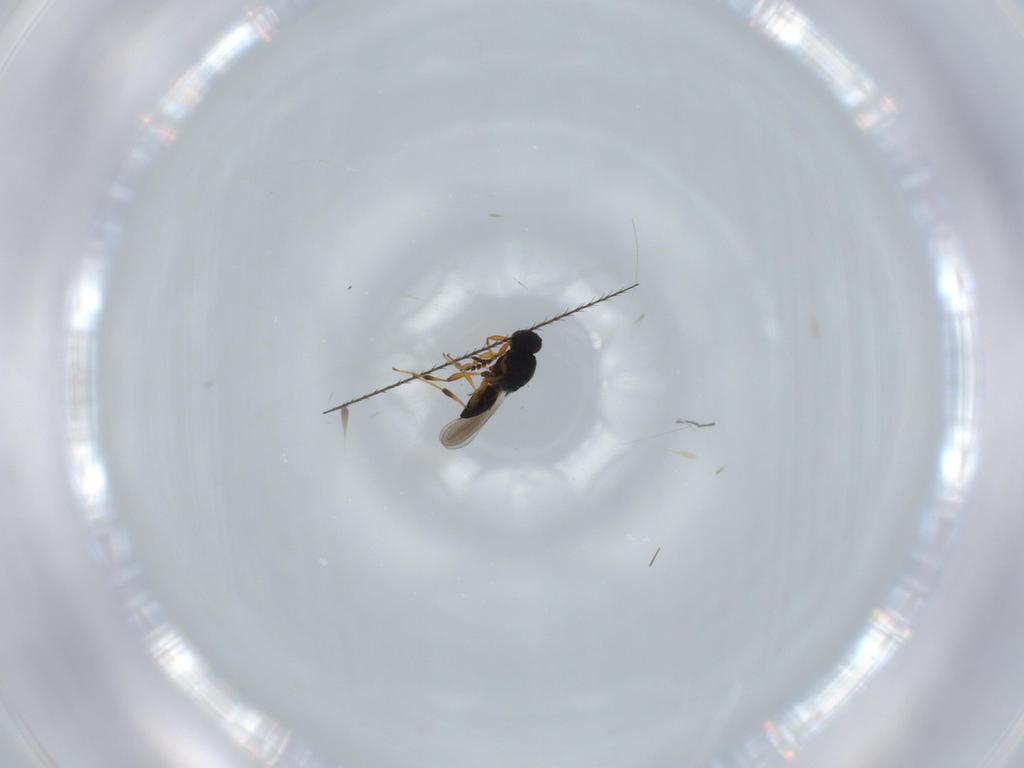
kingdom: Animalia
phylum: Arthropoda
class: Insecta
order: Hymenoptera
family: Platygastridae
